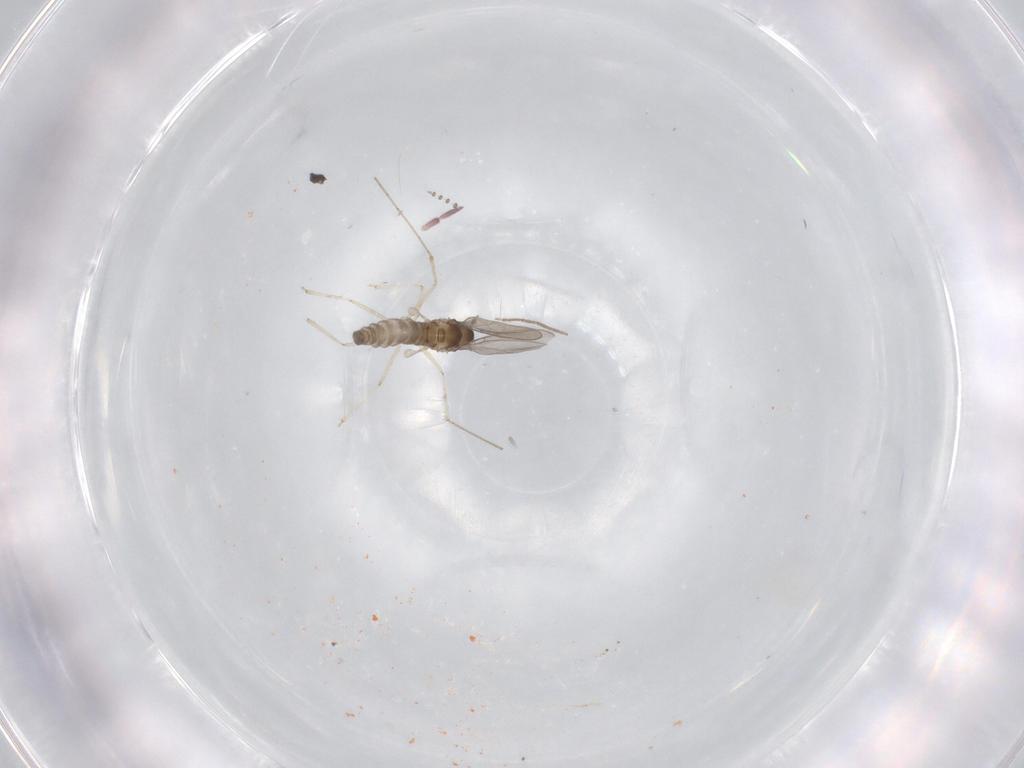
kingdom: Animalia
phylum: Arthropoda
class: Insecta
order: Diptera
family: Cecidomyiidae
